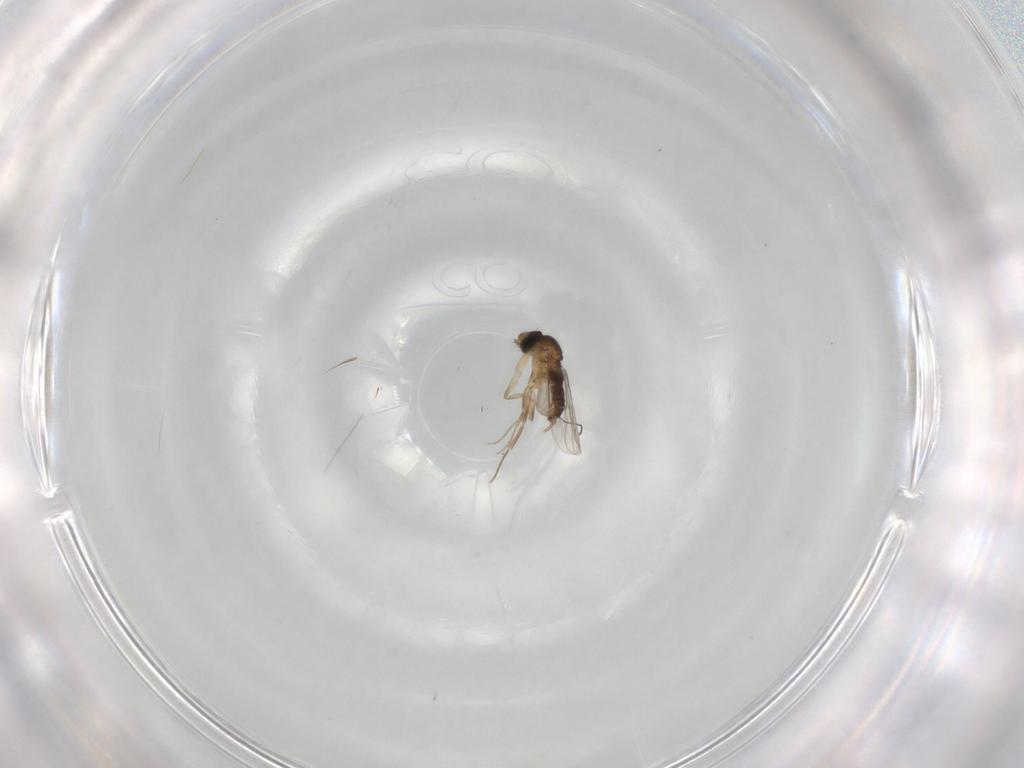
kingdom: Animalia
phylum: Arthropoda
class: Insecta
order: Diptera
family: Ceratopogonidae
